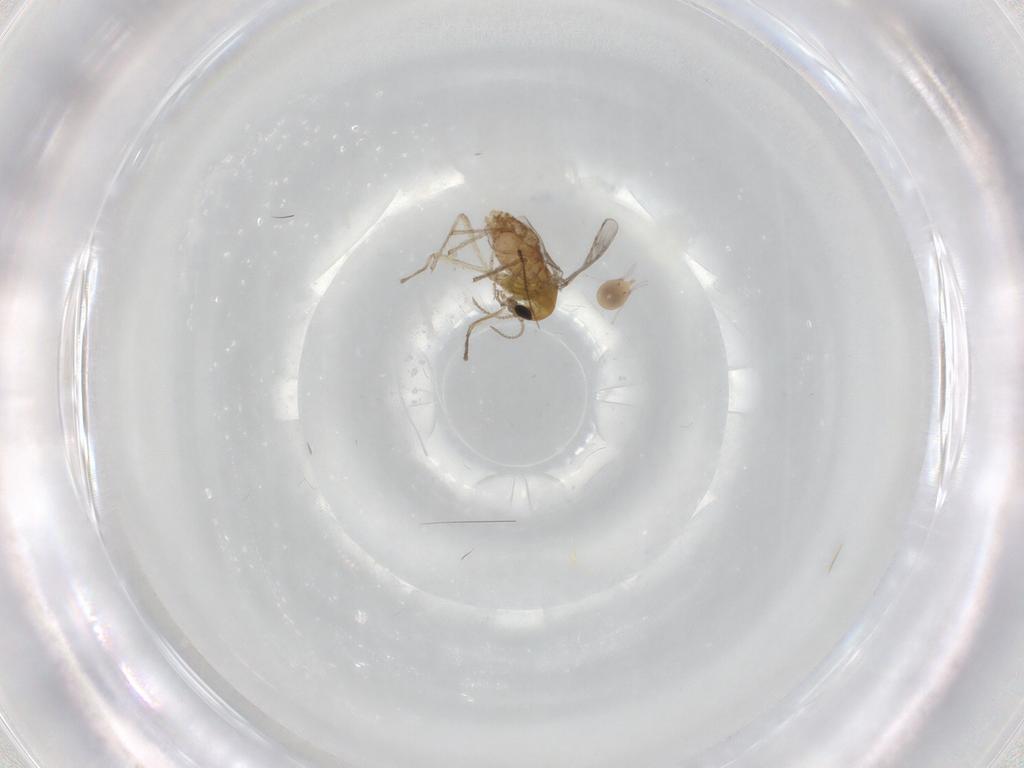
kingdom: Animalia
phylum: Arthropoda
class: Arachnida
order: Trombidiformes
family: Limnesiidae
